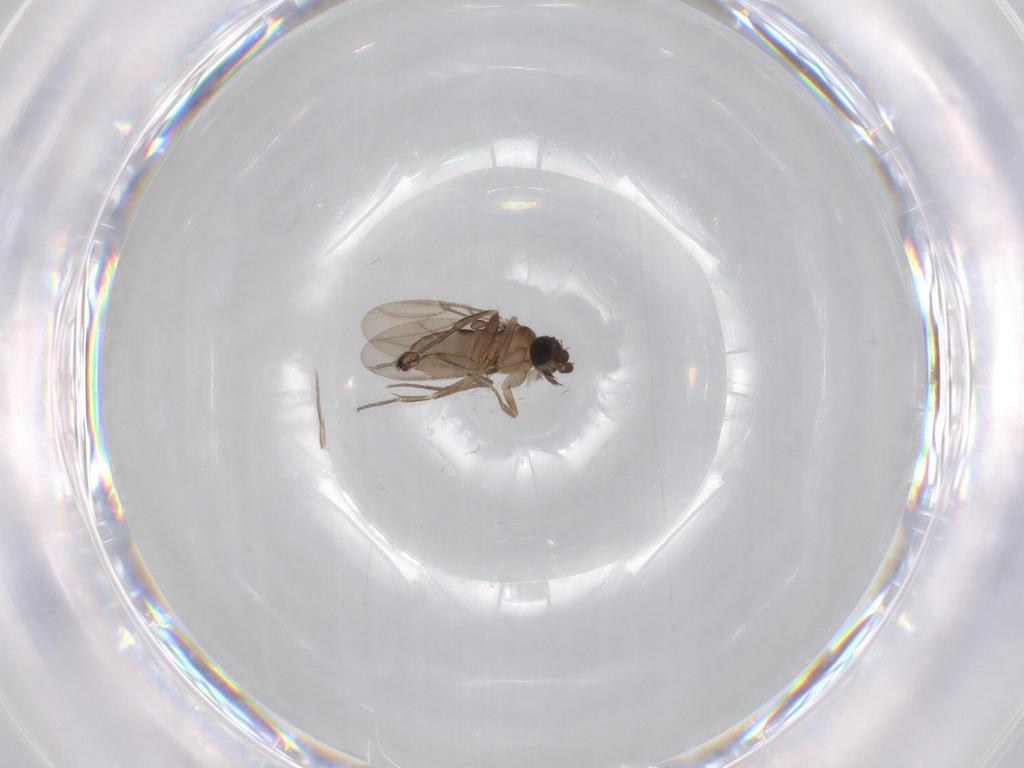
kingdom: Animalia
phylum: Arthropoda
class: Insecta
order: Diptera
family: Phoridae
